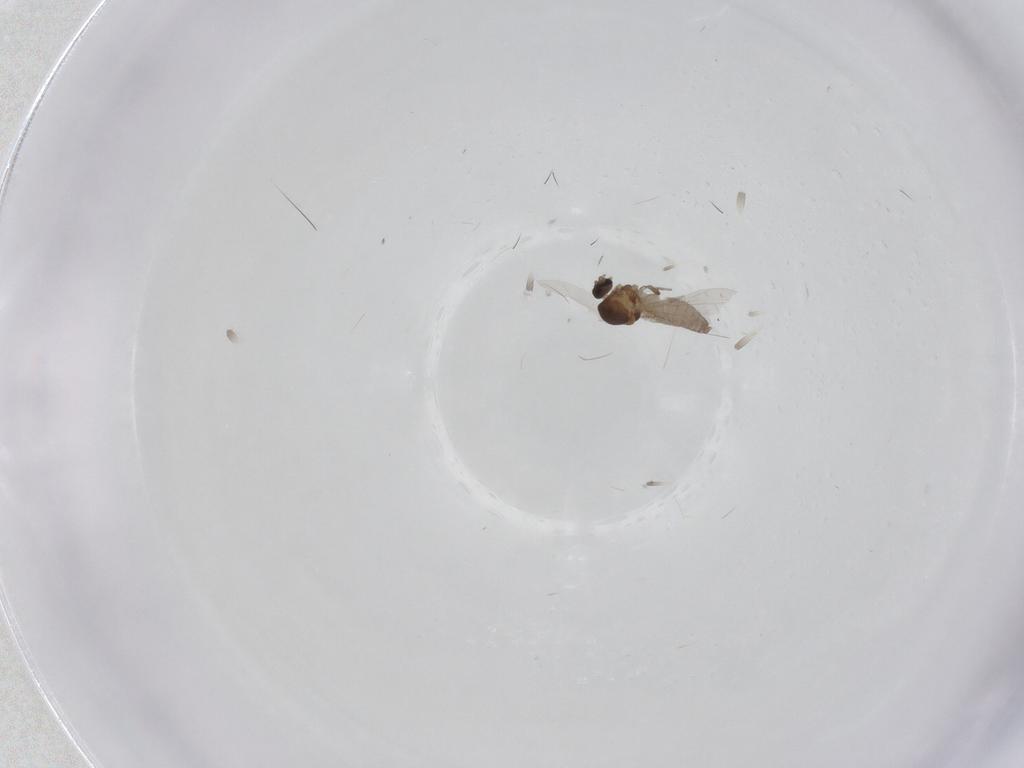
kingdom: Animalia
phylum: Arthropoda
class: Insecta
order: Diptera
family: Ceratopogonidae
